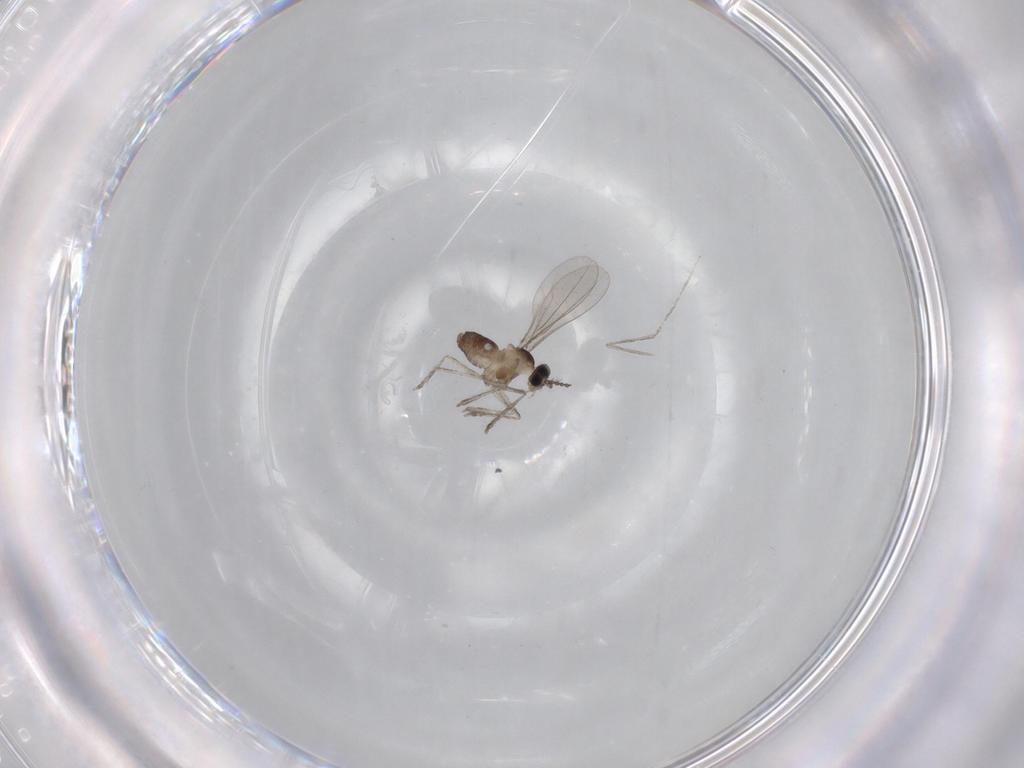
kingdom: Animalia
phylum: Arthropoda
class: Insecta
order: Diptera
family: Cecidomyiidae
